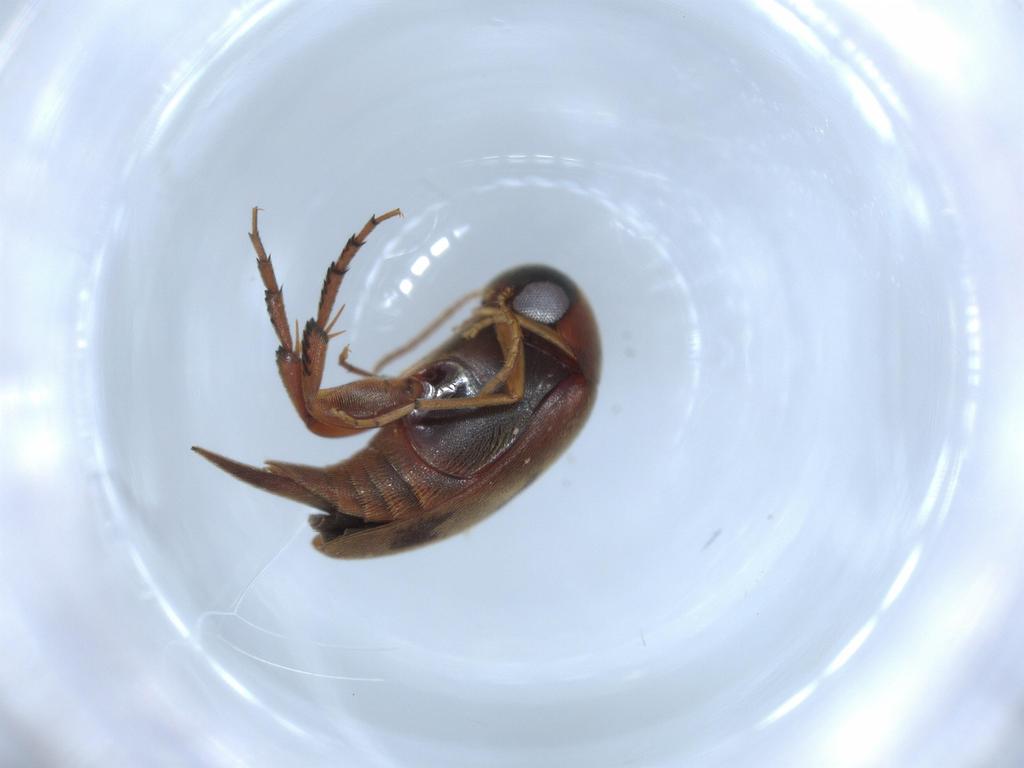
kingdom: Animalia
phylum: Arthropoda
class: Insecta
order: Coleoptera
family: Mordellidae
